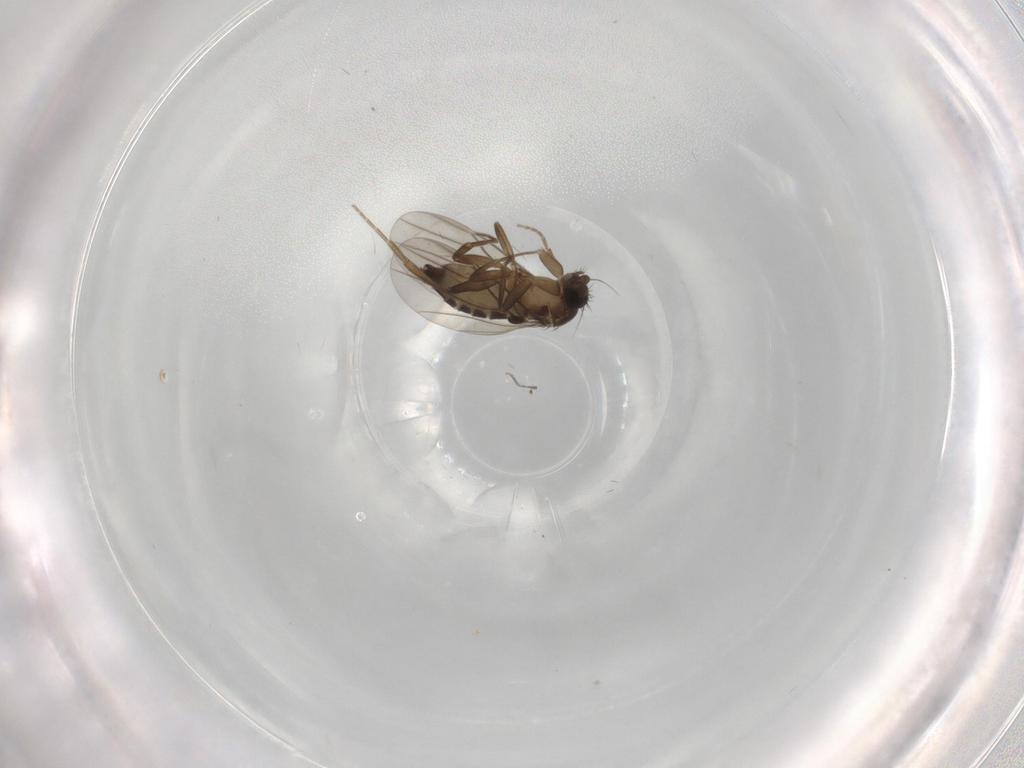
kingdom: Animalia
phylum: Arthropoda
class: Insecta
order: Diptera
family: Phoridae
